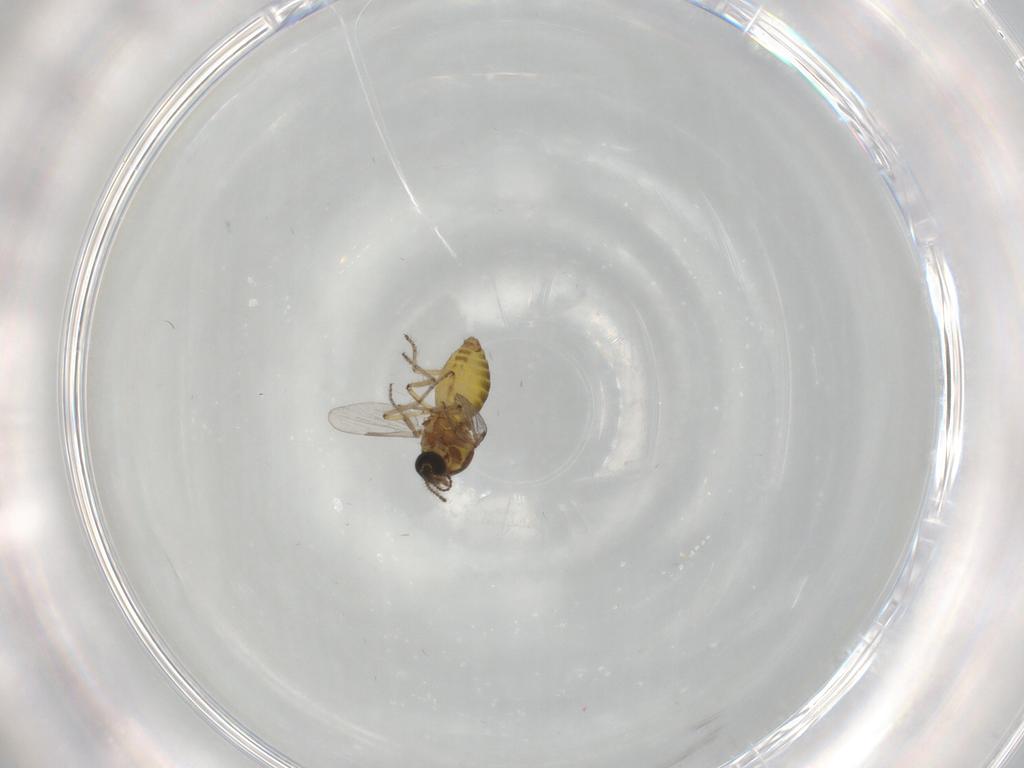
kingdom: Animalia
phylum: Arthropoda
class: Insecta
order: Diptera
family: Ceratopogonidae
